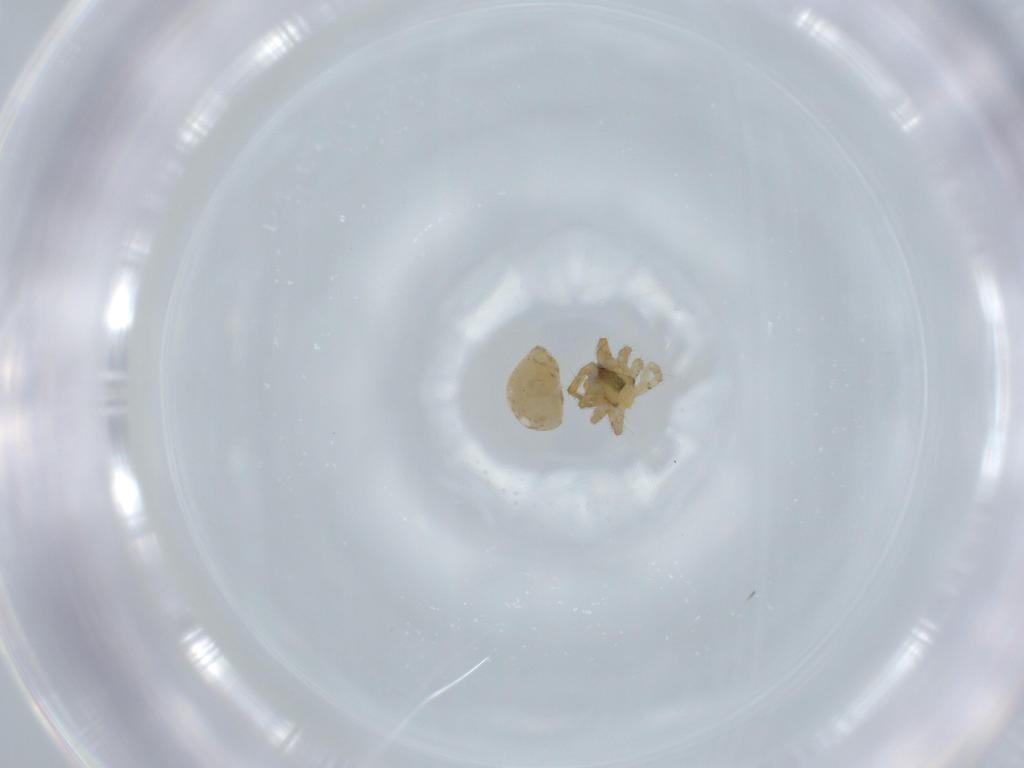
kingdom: Animalia
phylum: Arthropoda
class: Arachnida
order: Araneae
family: Theridiidae
